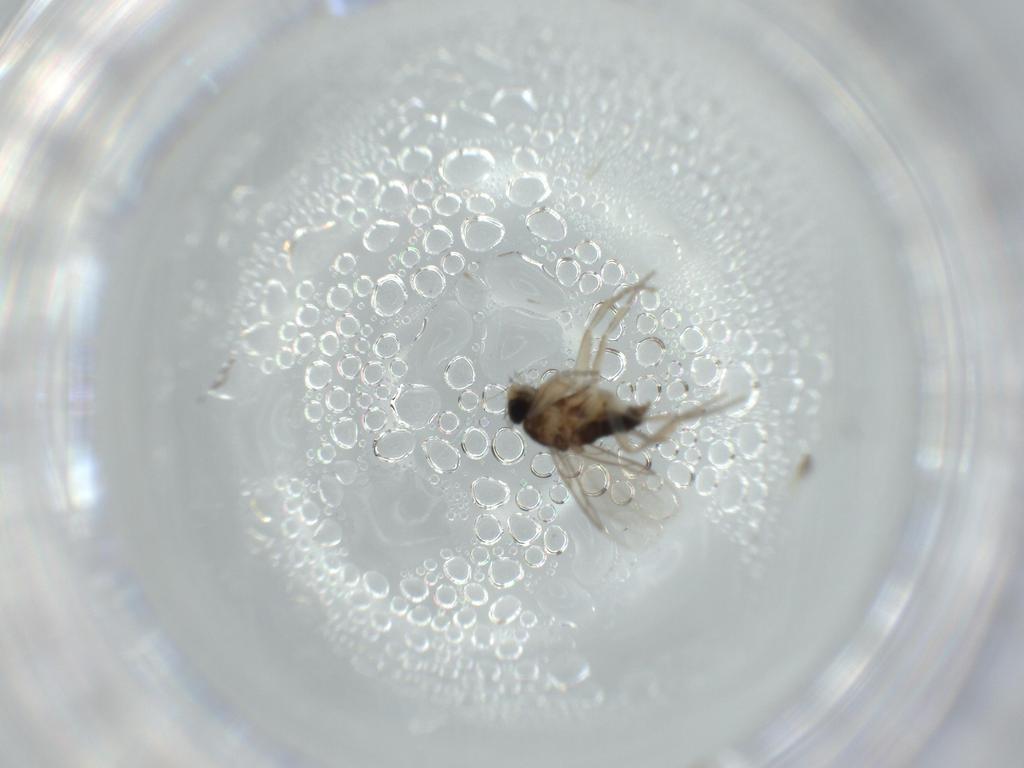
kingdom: Animalia
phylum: Arthropoda
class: Insecta
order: Diptera
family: Phoridae
